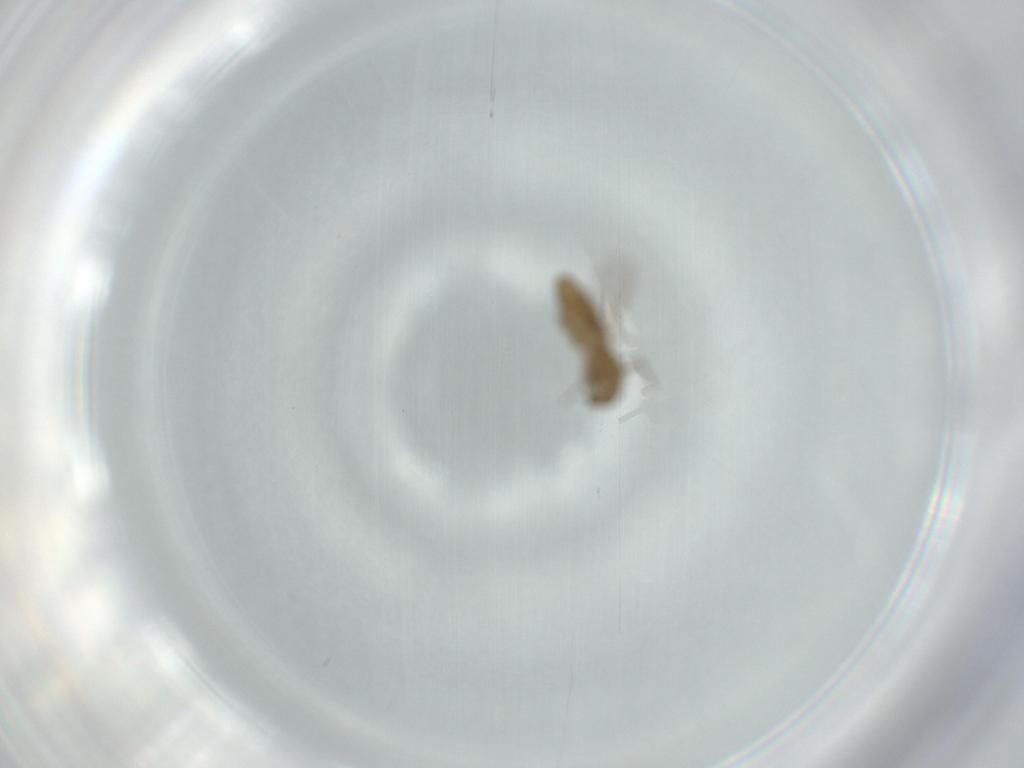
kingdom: Animalia
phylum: Arthropoda
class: Insecta
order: Diptera
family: Chironomidae
